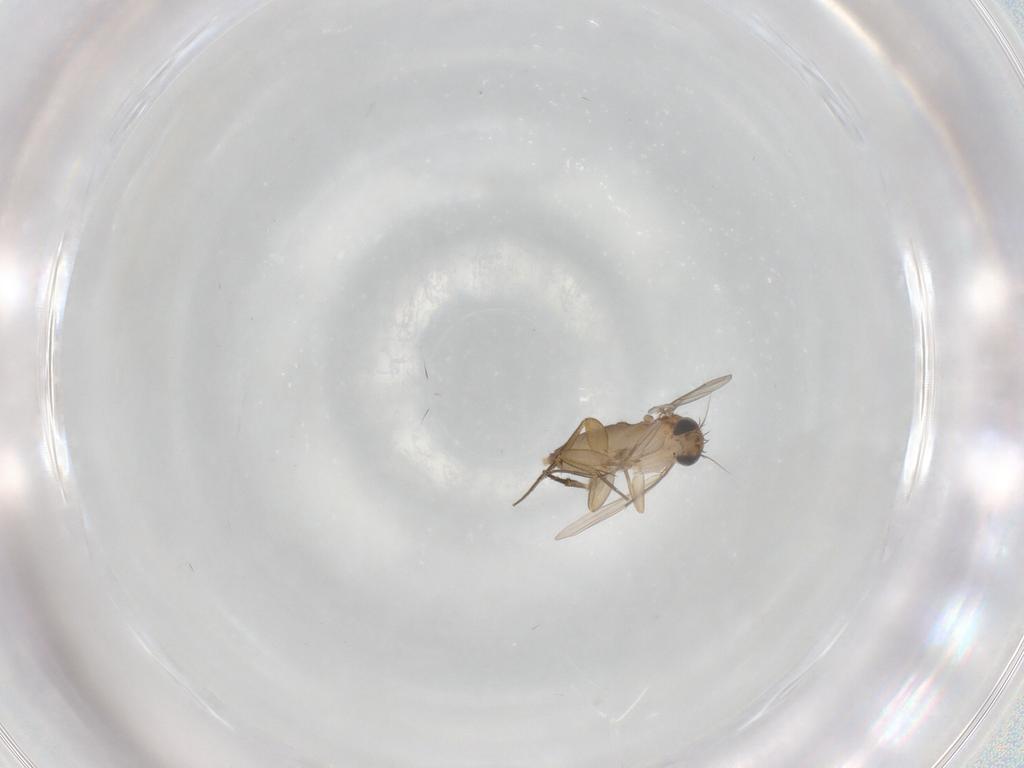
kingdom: Animalia
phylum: Arthropoda
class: Insecta
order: Diptera
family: Phoridae
